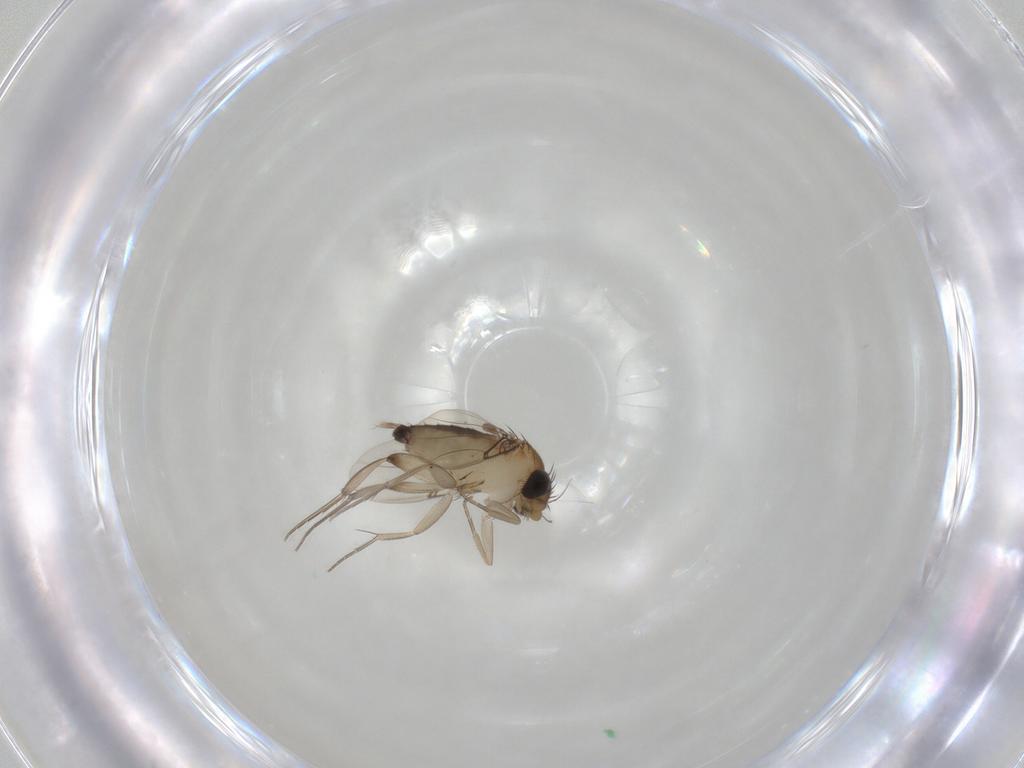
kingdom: Animalia
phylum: Arthropoda
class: Insecta
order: Diptera
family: Phoridae
